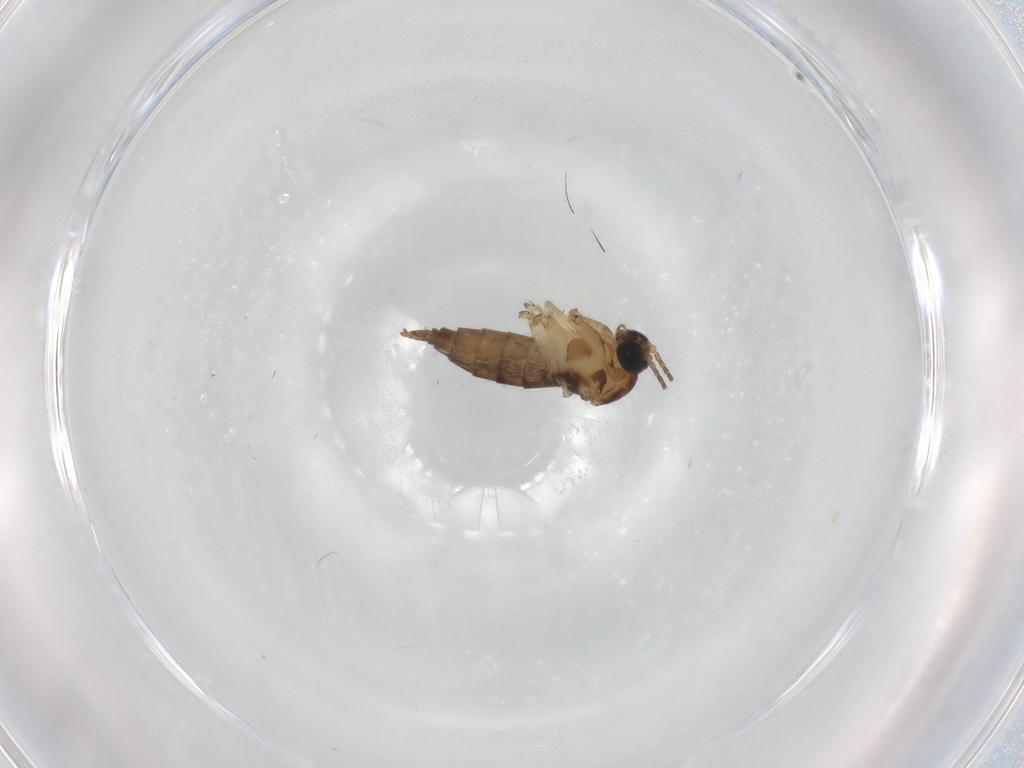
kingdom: Animalia
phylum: Arthropoda
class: Insecta
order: Diptera
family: Sciaridae
